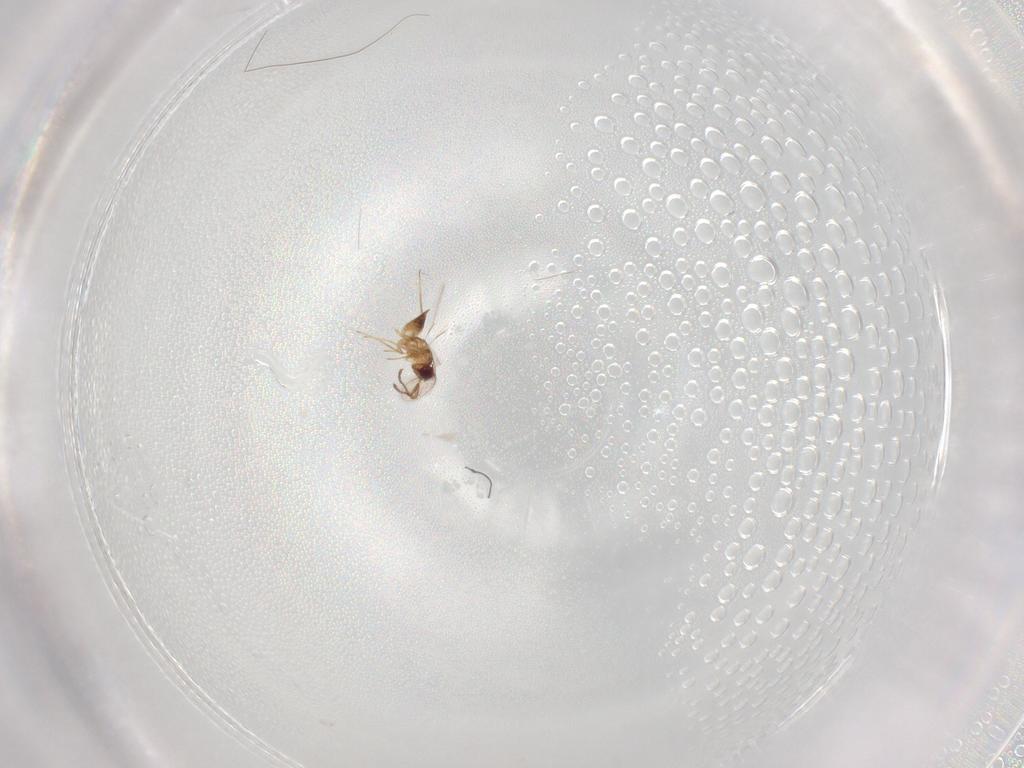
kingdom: Animalia
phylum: Arthropoda
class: Insecta
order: Hymenoptera
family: Mymaridae
